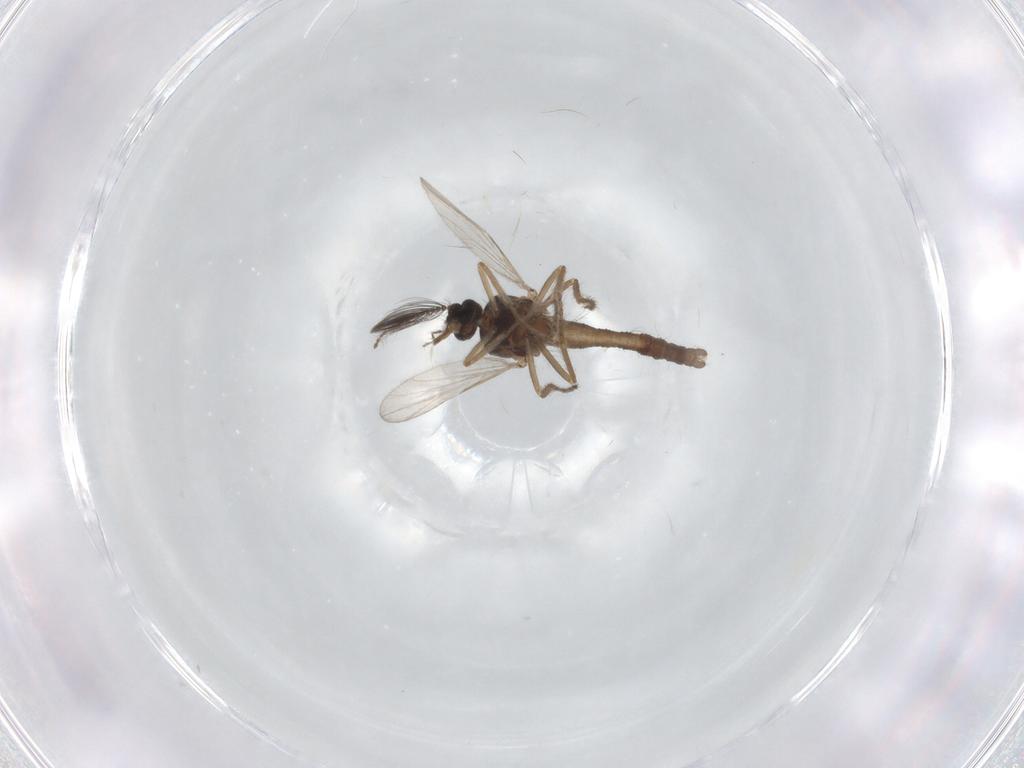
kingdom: Animalia
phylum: Arthropoda
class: Insecta
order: Diptera
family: Ceratopogonidae
